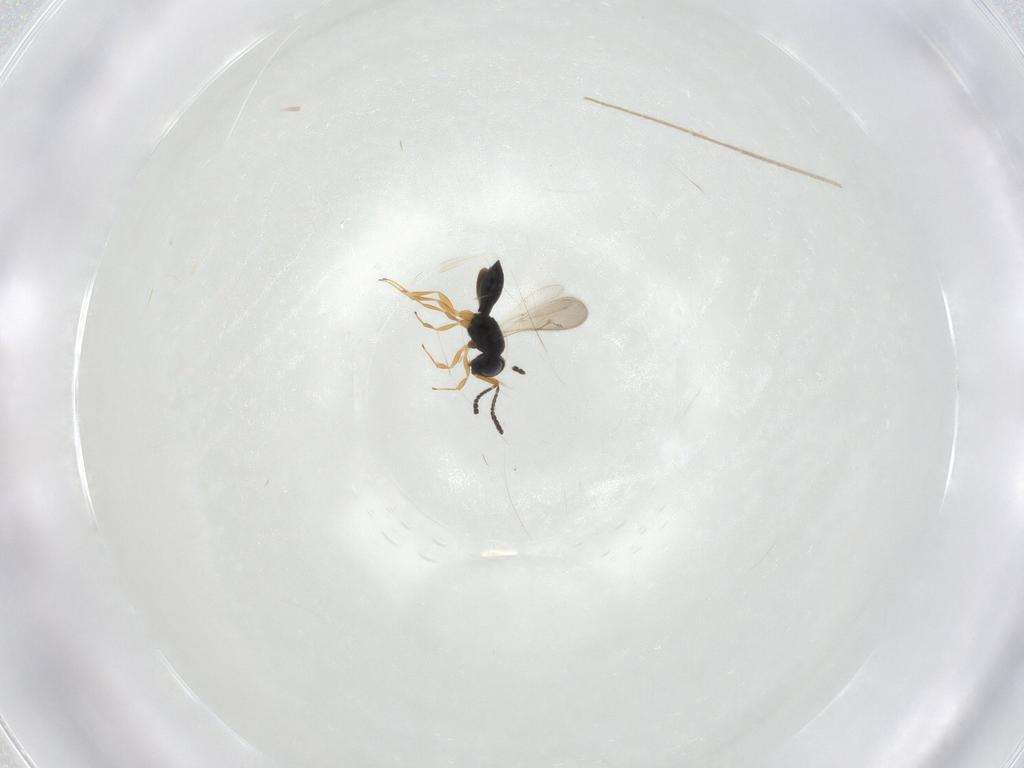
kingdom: Animalia
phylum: Arthropoda
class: Insecta
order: Hymenoptera
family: Scelionidae
